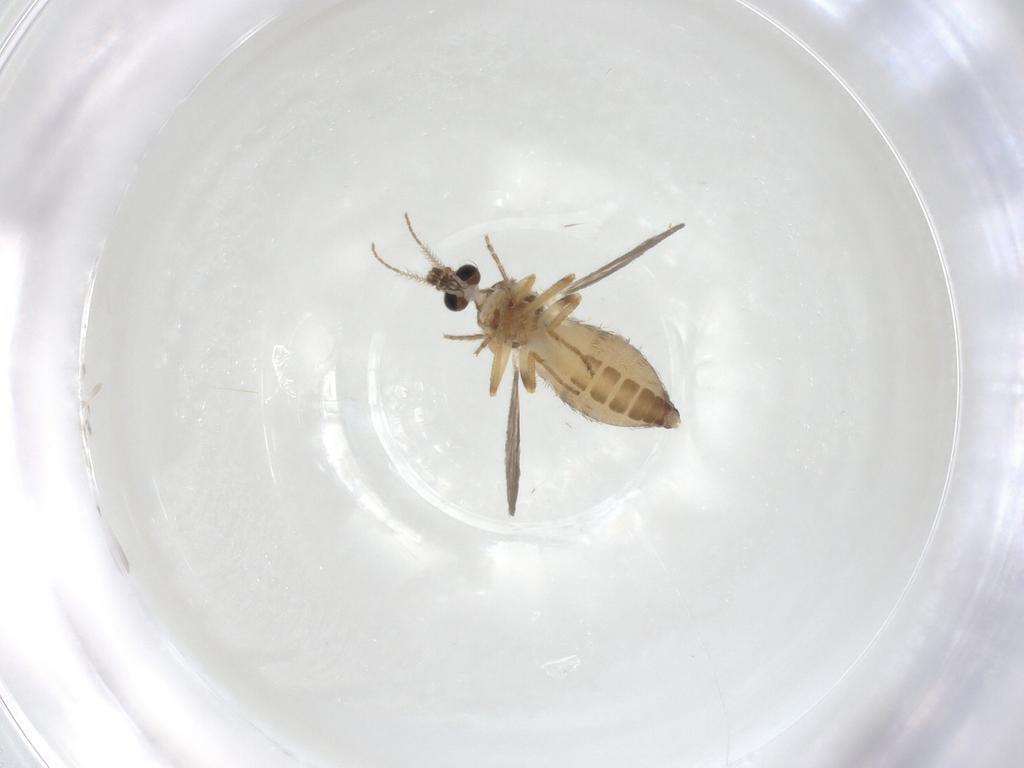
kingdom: Animalia
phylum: Arthropoda
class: Insecta
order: Diptera
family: Ceratopogonidae
